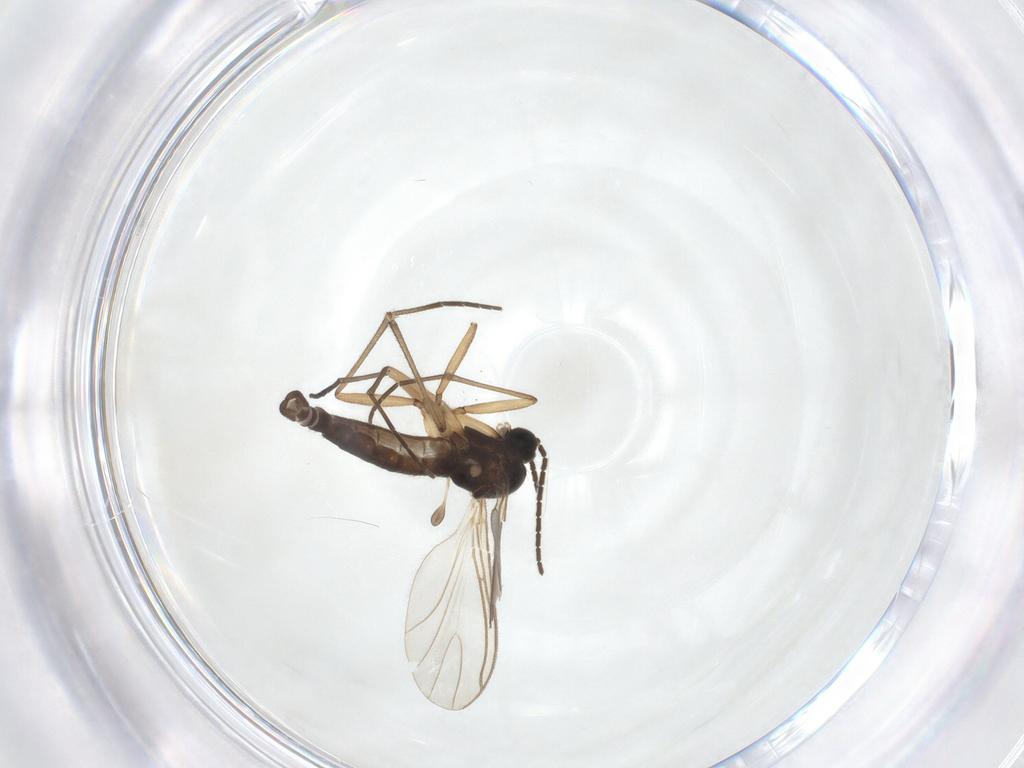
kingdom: Animalia
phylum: Arthropoda
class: Insecta
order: Diptera
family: Sciaridae
